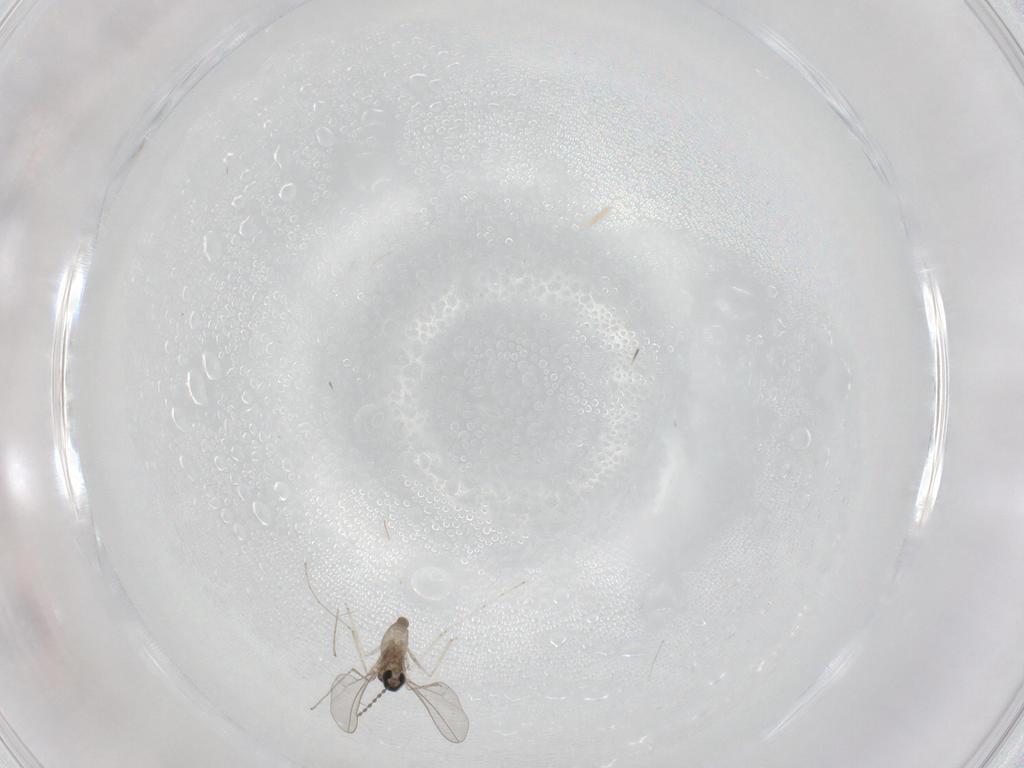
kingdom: Animalia
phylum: Arthropoda
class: Insecta
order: Diptera
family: Cecidomyiidae
